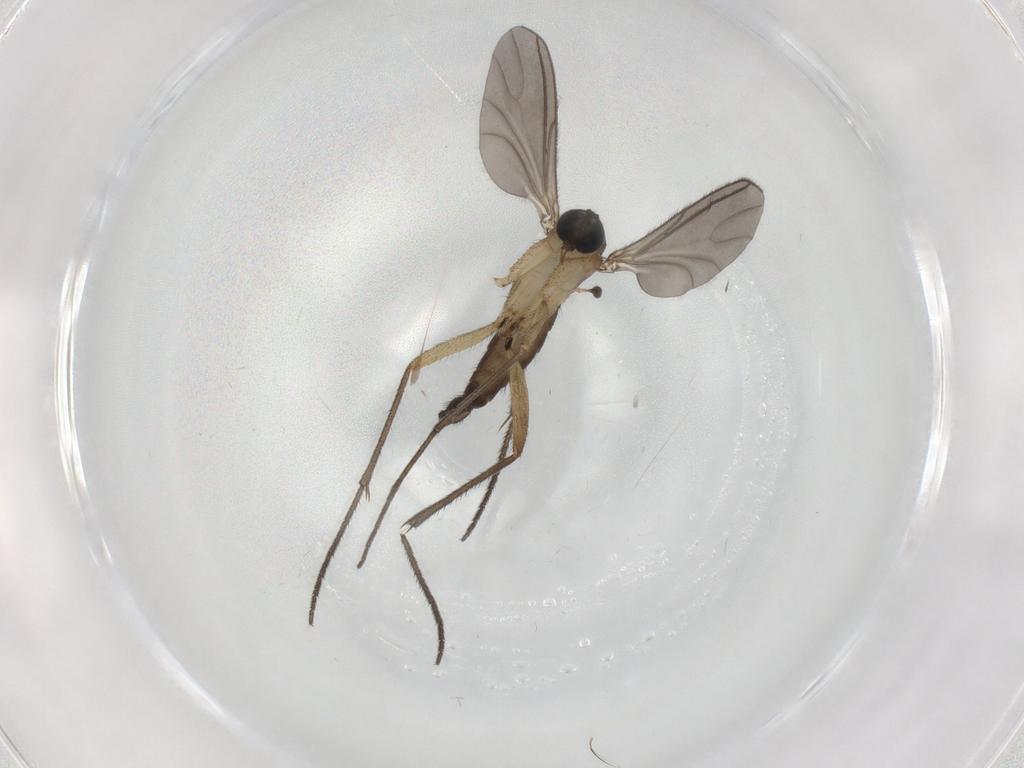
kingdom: Animalia
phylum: Arthropoda
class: Insecta
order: Diptera
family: Sciaridae
